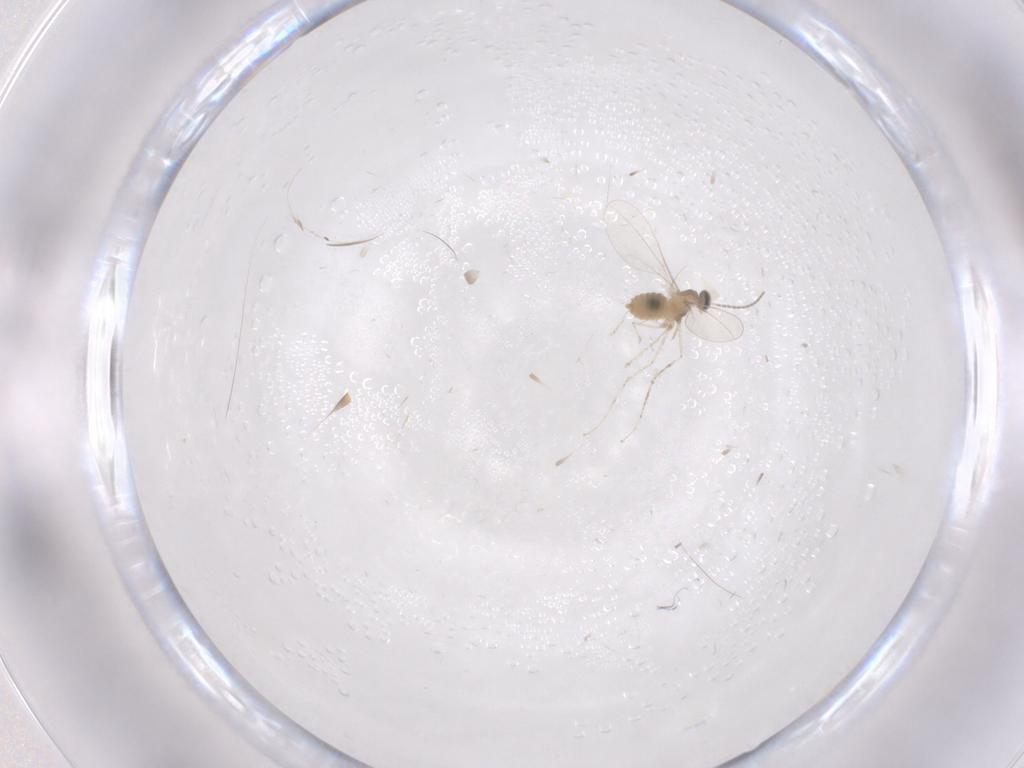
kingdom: Animalia
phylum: Arthropoda
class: Insecta
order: Diptera
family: Cecidomyiidae
